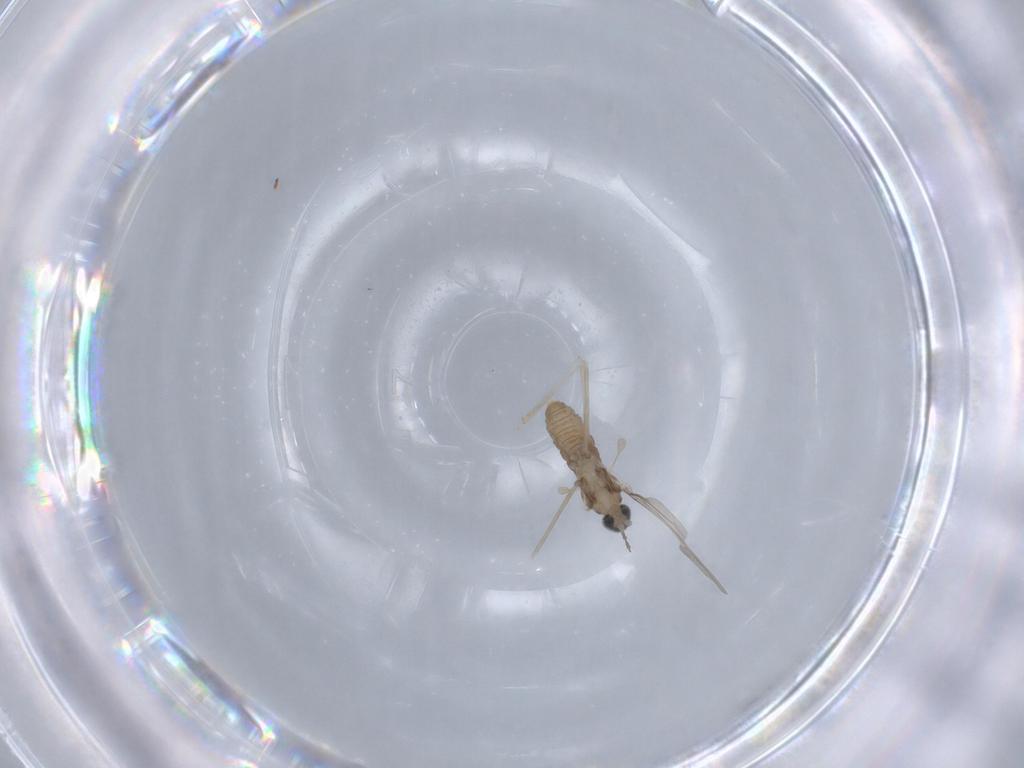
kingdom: Animalia
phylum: Arthropoda
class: Insecta
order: Diptera
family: Cecidomyiidae
